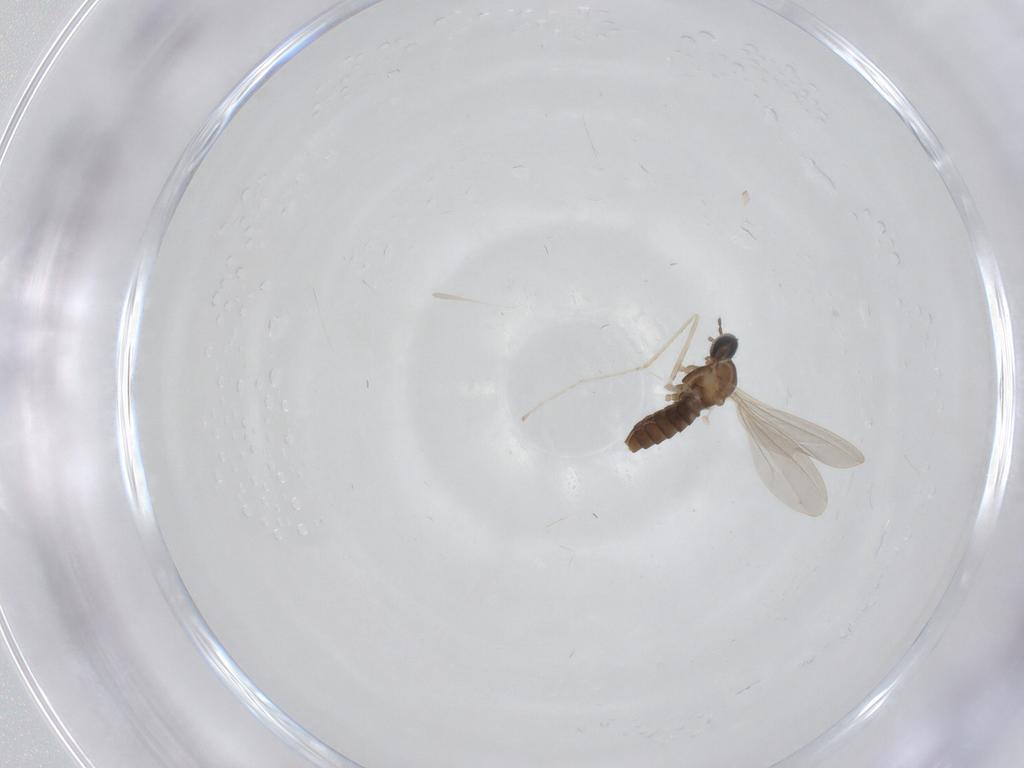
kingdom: Animalia
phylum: Arthropoda
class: Insecta
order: Diptera
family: Cecidomyiidae
